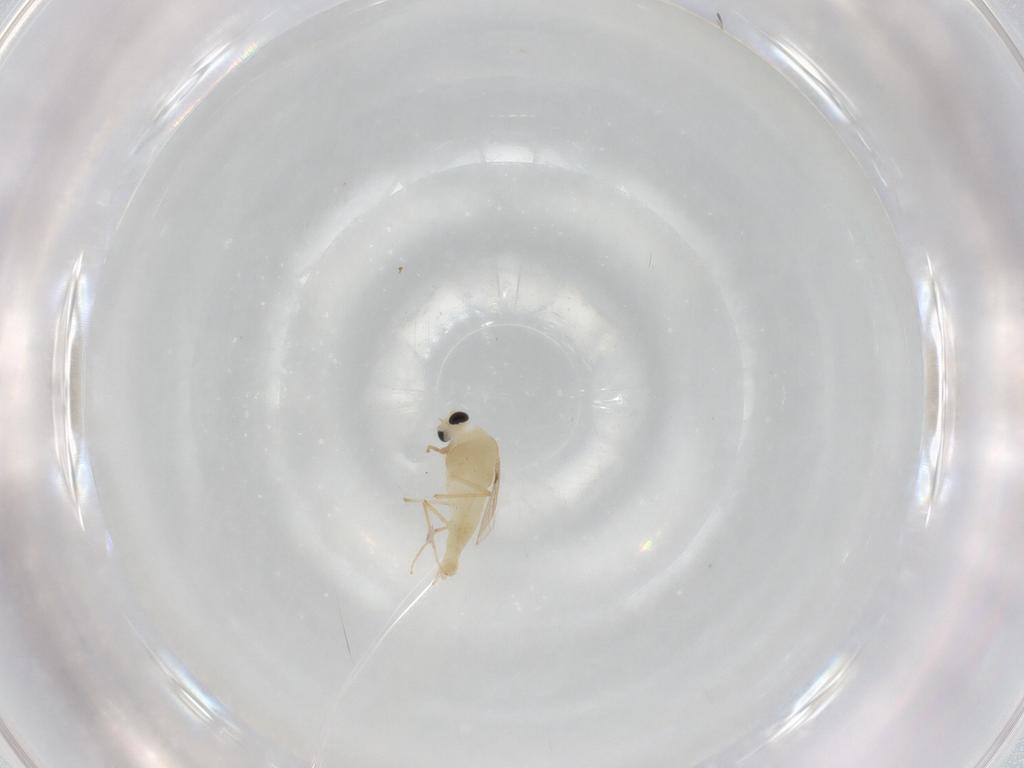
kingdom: Animalia
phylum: Arthropoda
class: Insecta
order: Diptera
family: Chironomidae
